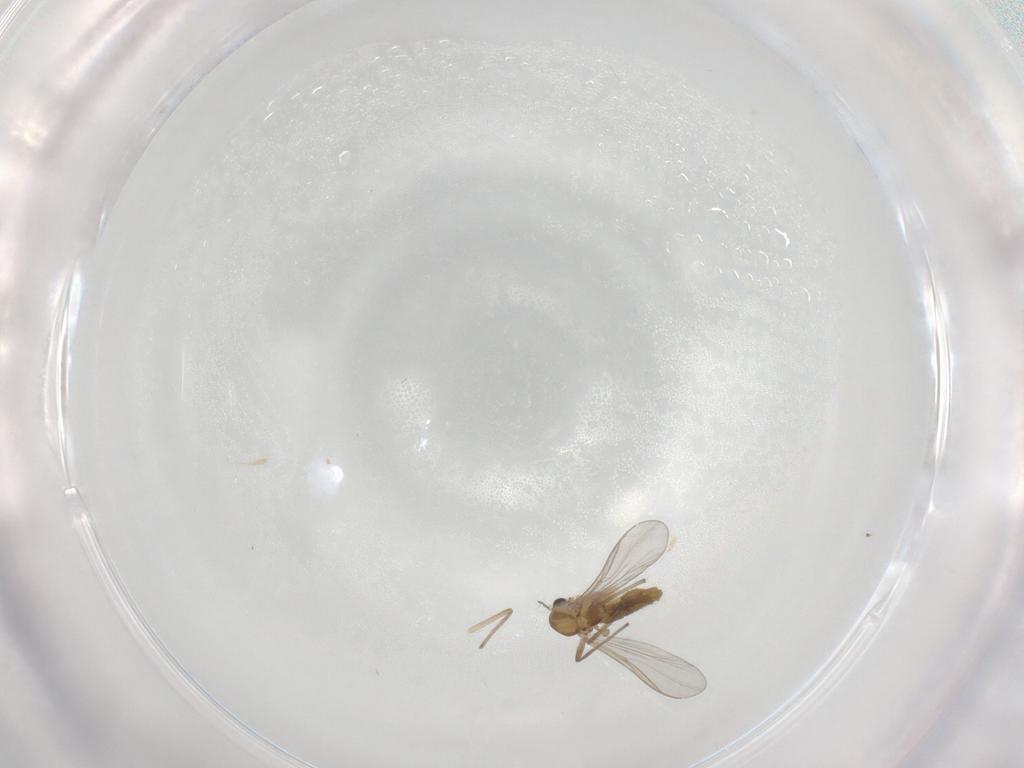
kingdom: Animalia
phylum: Arthropoda
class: Insecta
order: Diptera
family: Chironomidae
